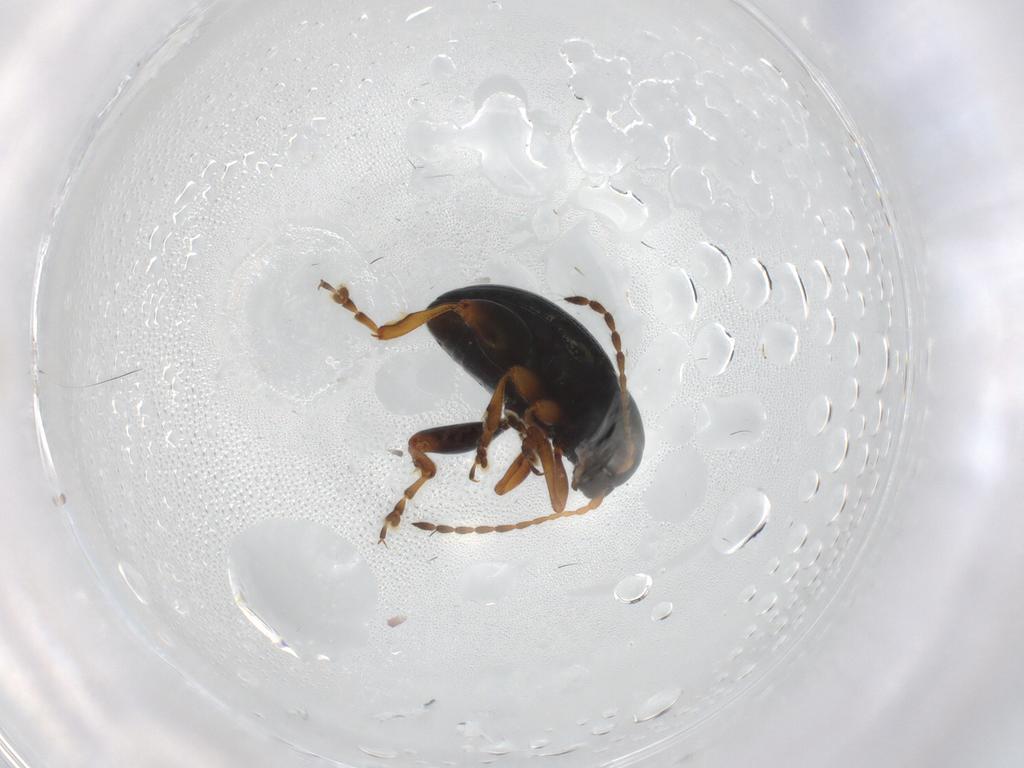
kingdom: Animalia
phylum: Arthropoda
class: Insecta
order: Coleoptera
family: Chrysomelidae
